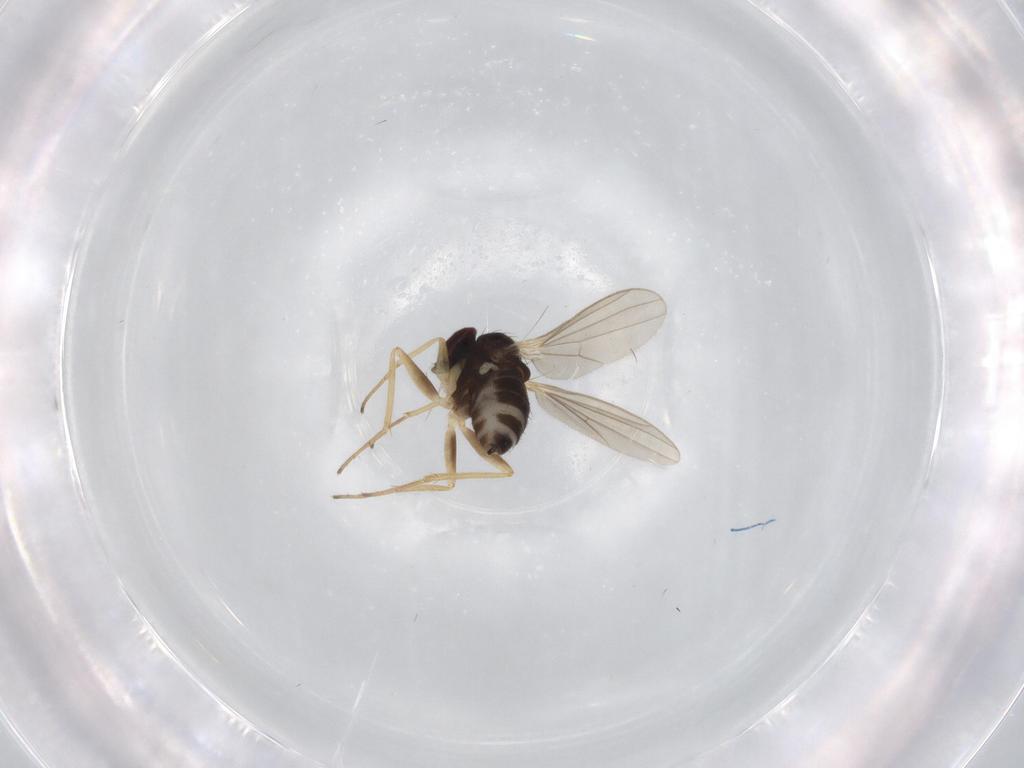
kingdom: Animalia
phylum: Arthropoda
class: Insecta
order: Diptera
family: Dolichopodidae
